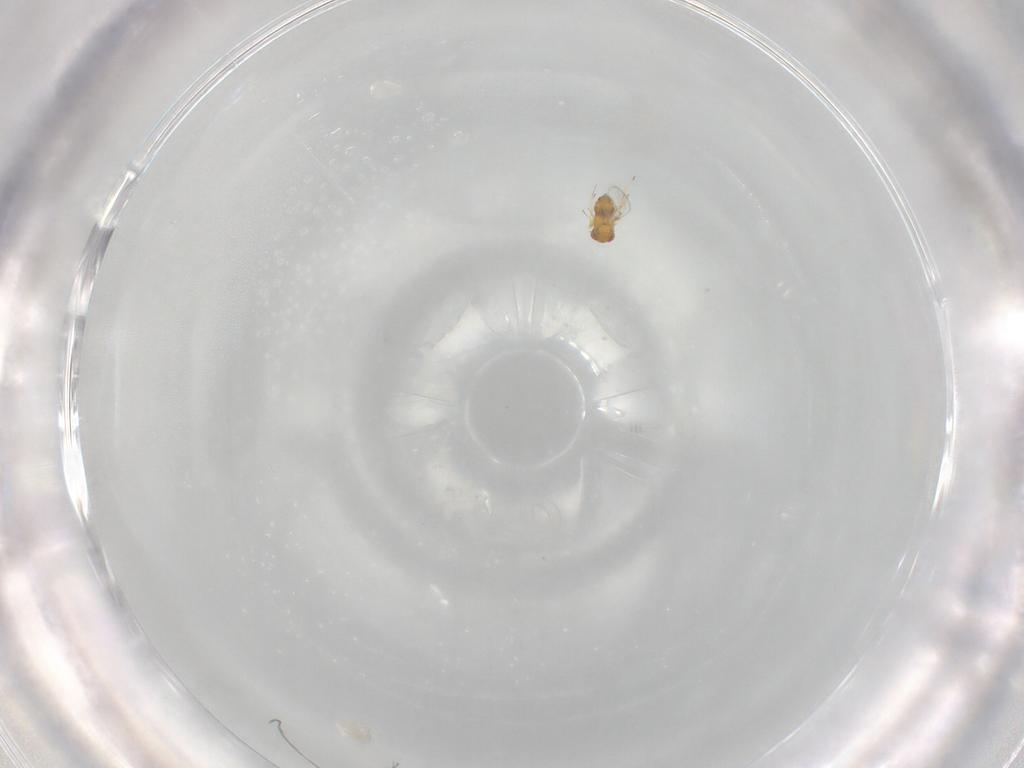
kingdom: Animalia
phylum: Arthropoda
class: Insecta
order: Hymenoptera
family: Trichogrammatidae
